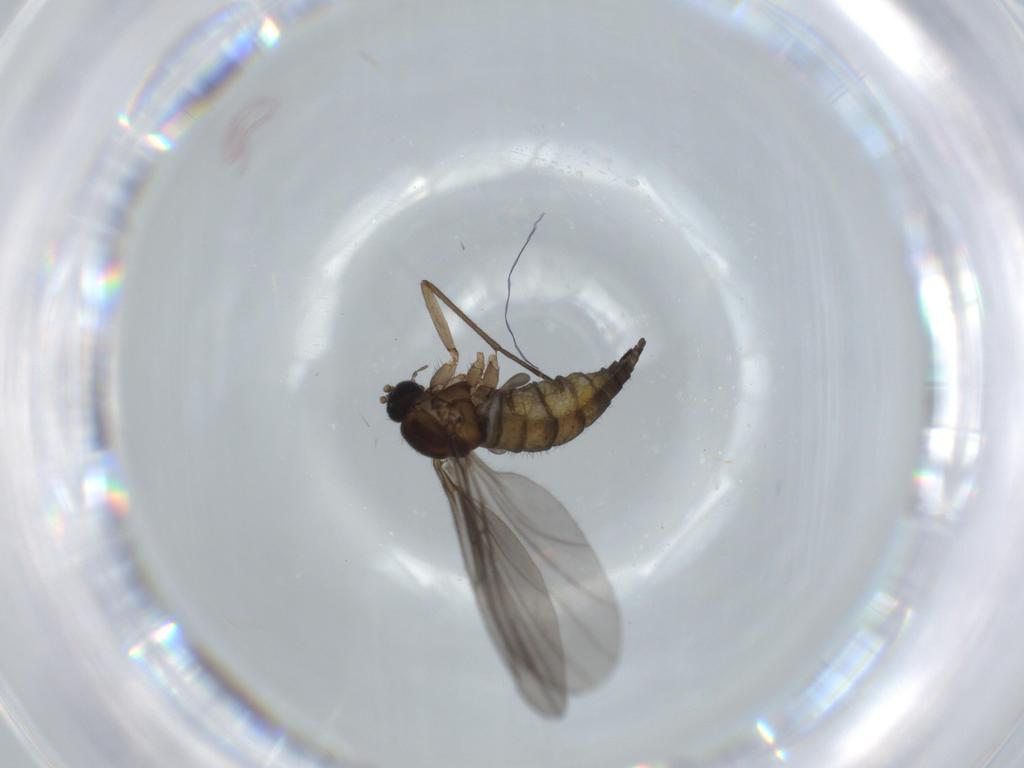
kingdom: Animalia
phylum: Arthropoda
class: Insecta
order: Diptera
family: Sciaridae
